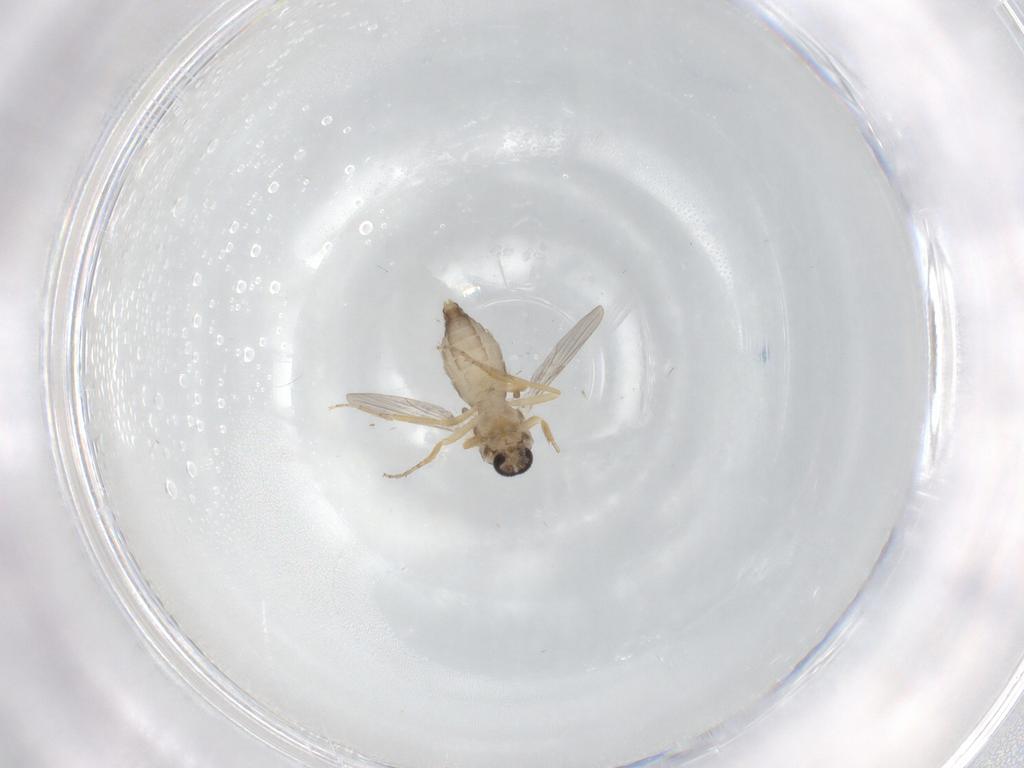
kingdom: Animalia
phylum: Arthropoda
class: Insecta
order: Diptera
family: Ceratopogonidae
